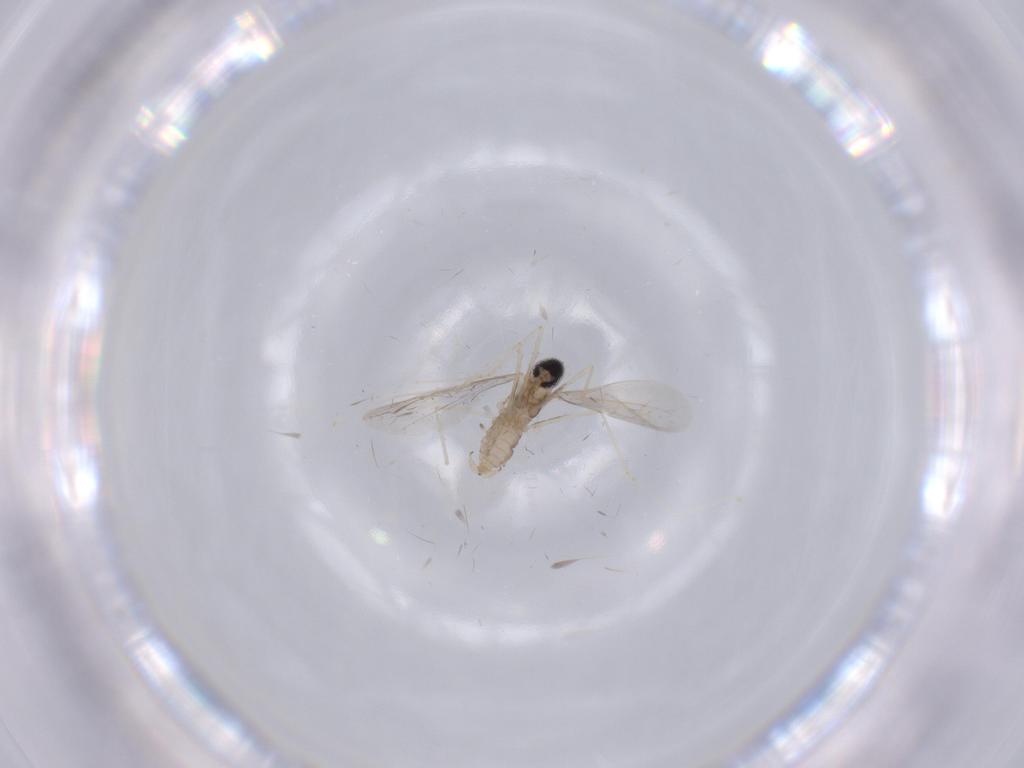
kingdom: Animalia
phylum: Arthropoda
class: Insecta
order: Diptera
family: Cecidomyiidae
